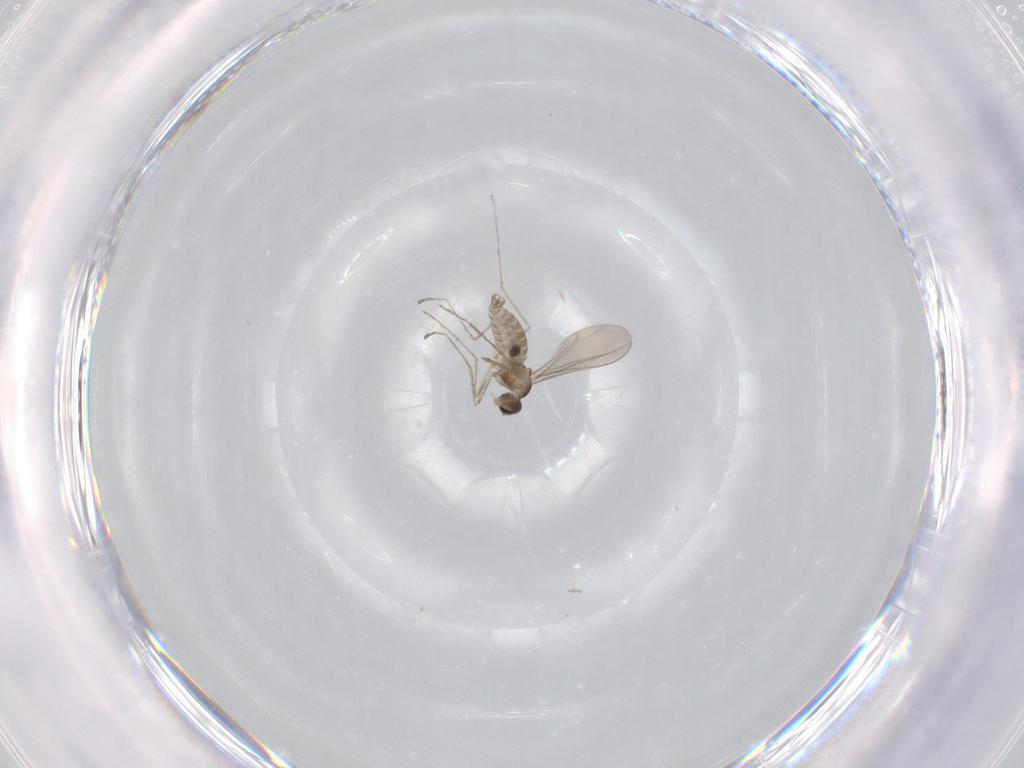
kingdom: Animalia
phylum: Arthropoda
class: Insecta
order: Diptera
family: Cecidomyiidae
